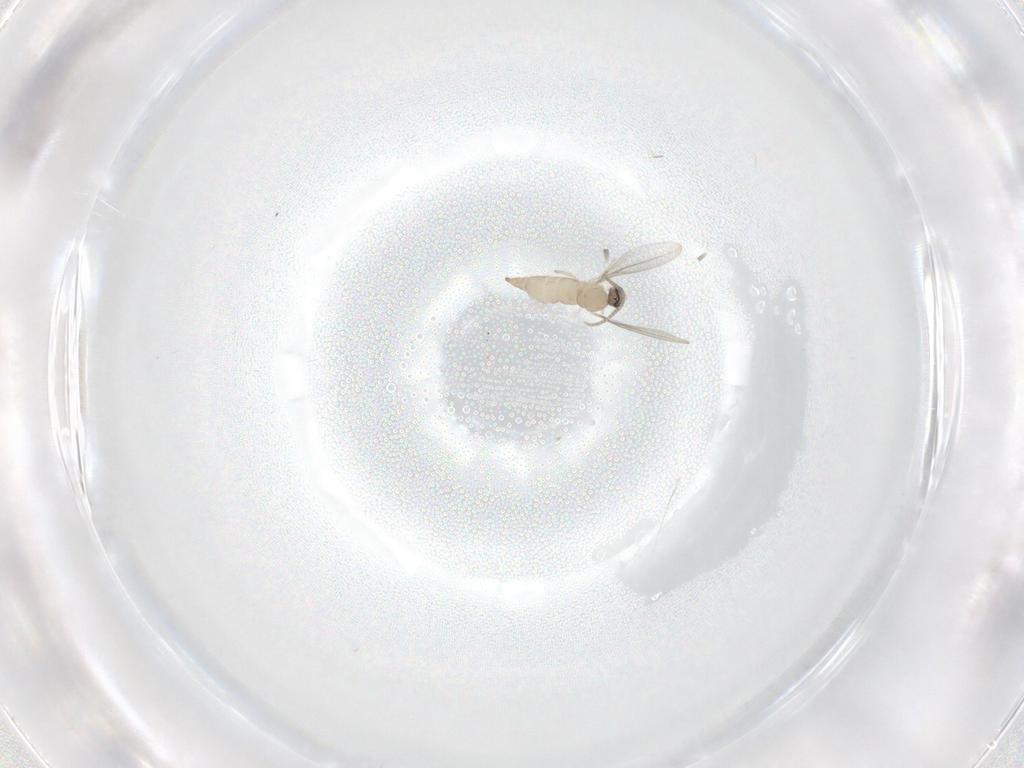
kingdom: Animalia
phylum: Arthropoda
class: Insecta
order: Diptera
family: Cecidomyiidae
